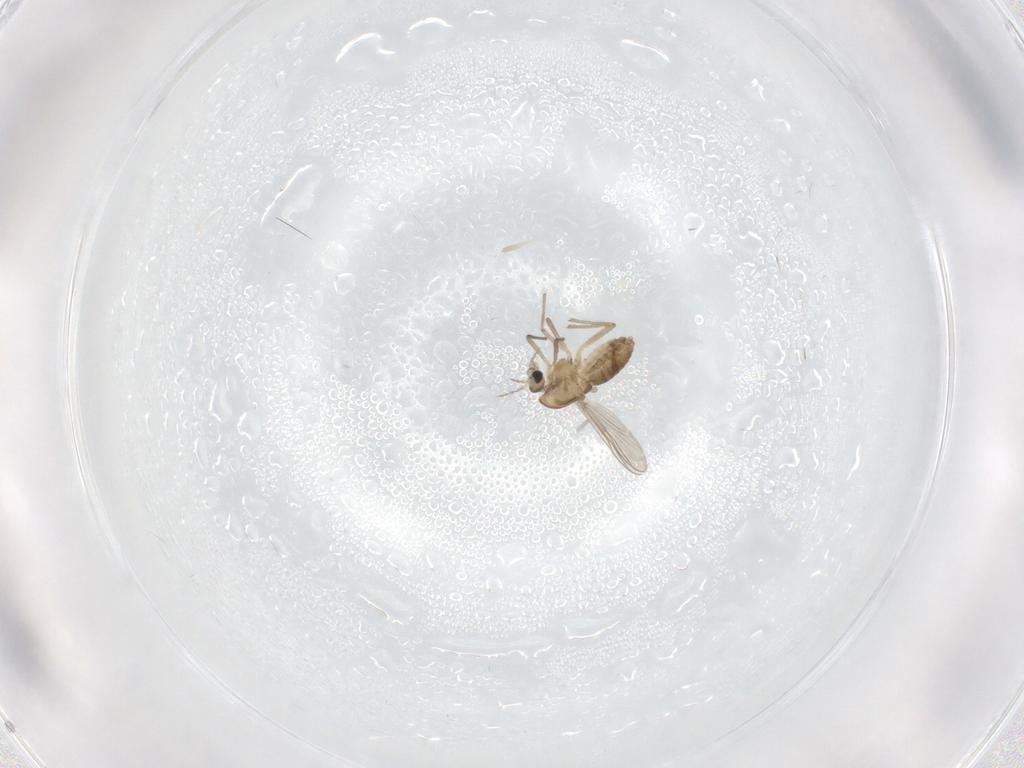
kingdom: Animalia
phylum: Arthropoda
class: Insecta
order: Diptera
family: Chironomidae
